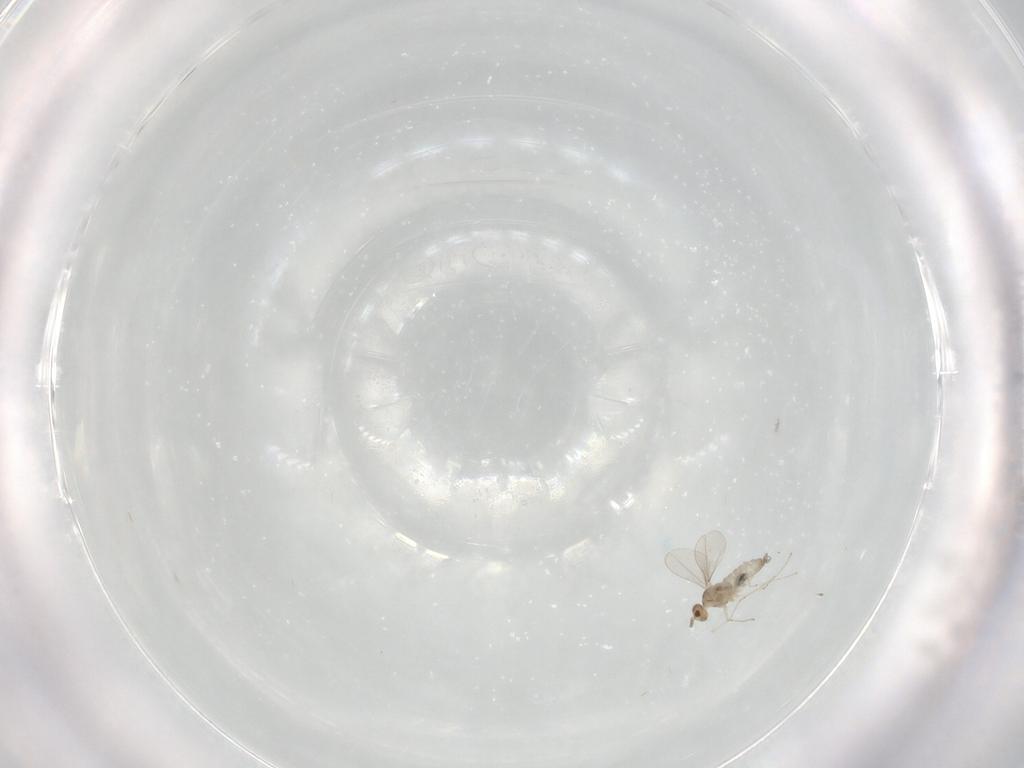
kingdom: Animalia
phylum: Arthropoda
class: Insecta
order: Diptera
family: Cecidomyiidae
